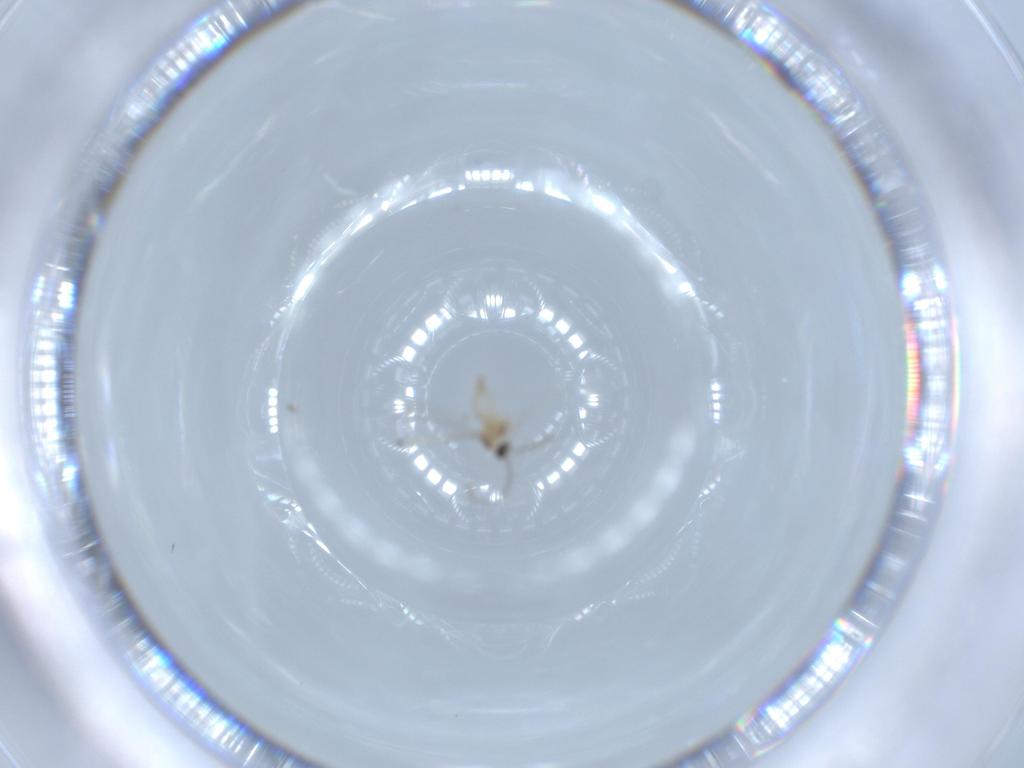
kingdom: Animalia
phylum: Arthropoda
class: Insecta
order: Diptera
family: Cecidomyiidae
